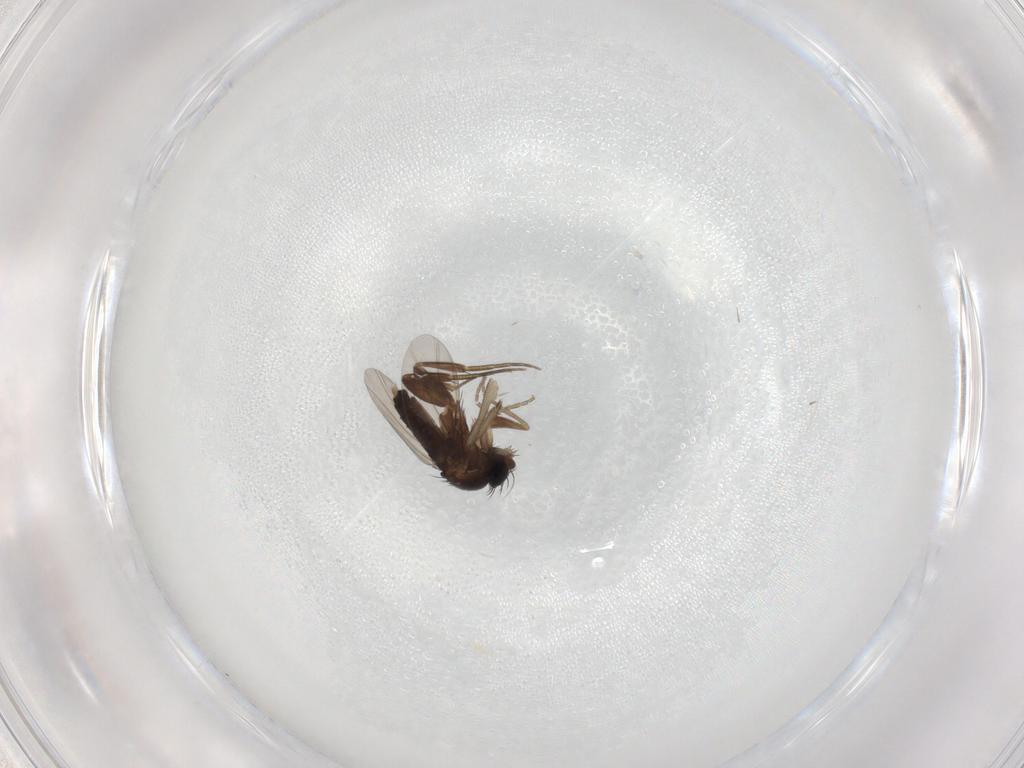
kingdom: Animalia
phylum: Arthropoda
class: Insecta
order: Diptera
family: Phoridae
